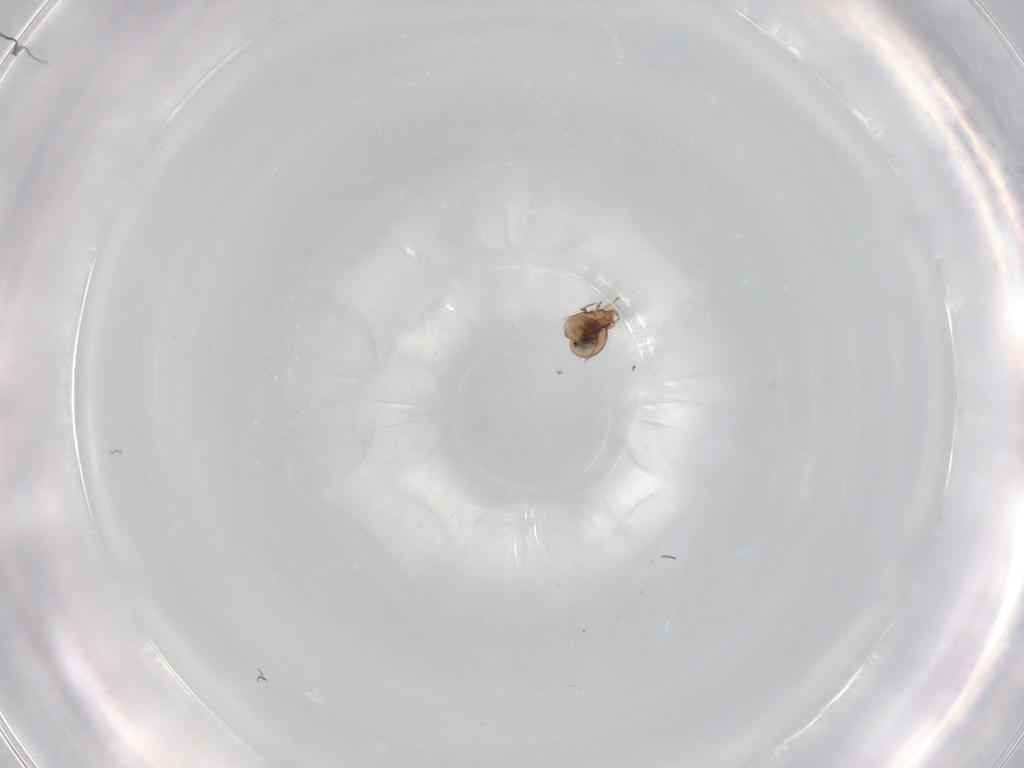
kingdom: Animalia
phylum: Arthropoda
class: Arachnida
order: Sarcoptiformes
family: Oribatulidae
